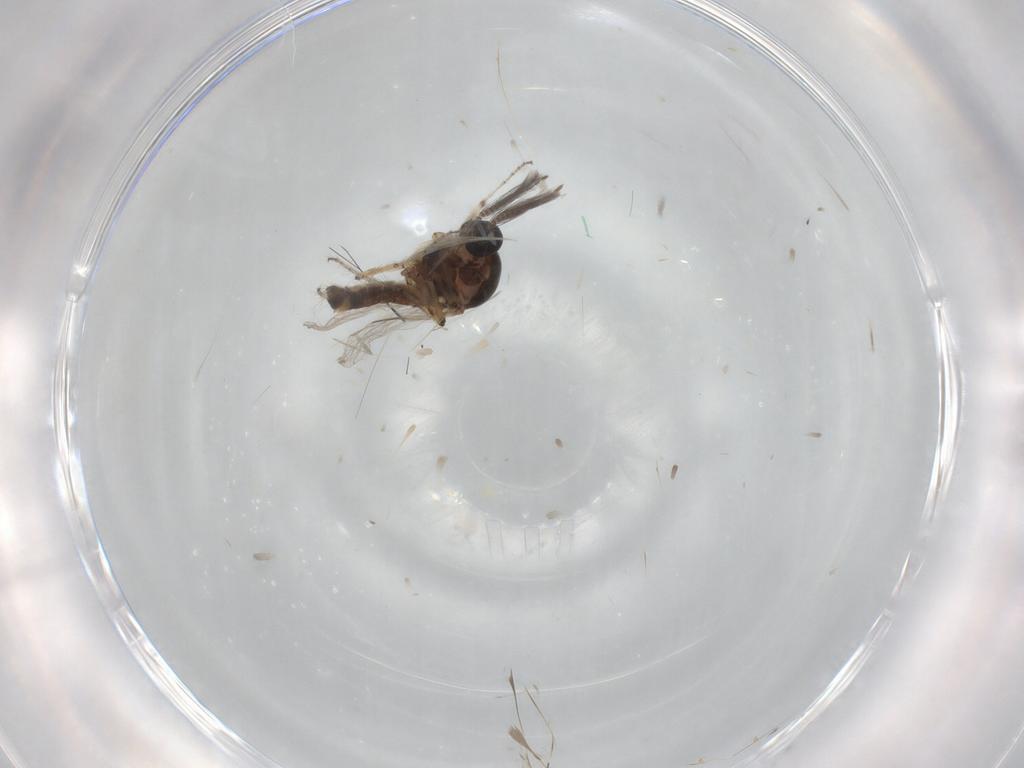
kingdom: Animalia
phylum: Arthropoda
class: Insecta
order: Diptera
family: Ceratopogonidae
